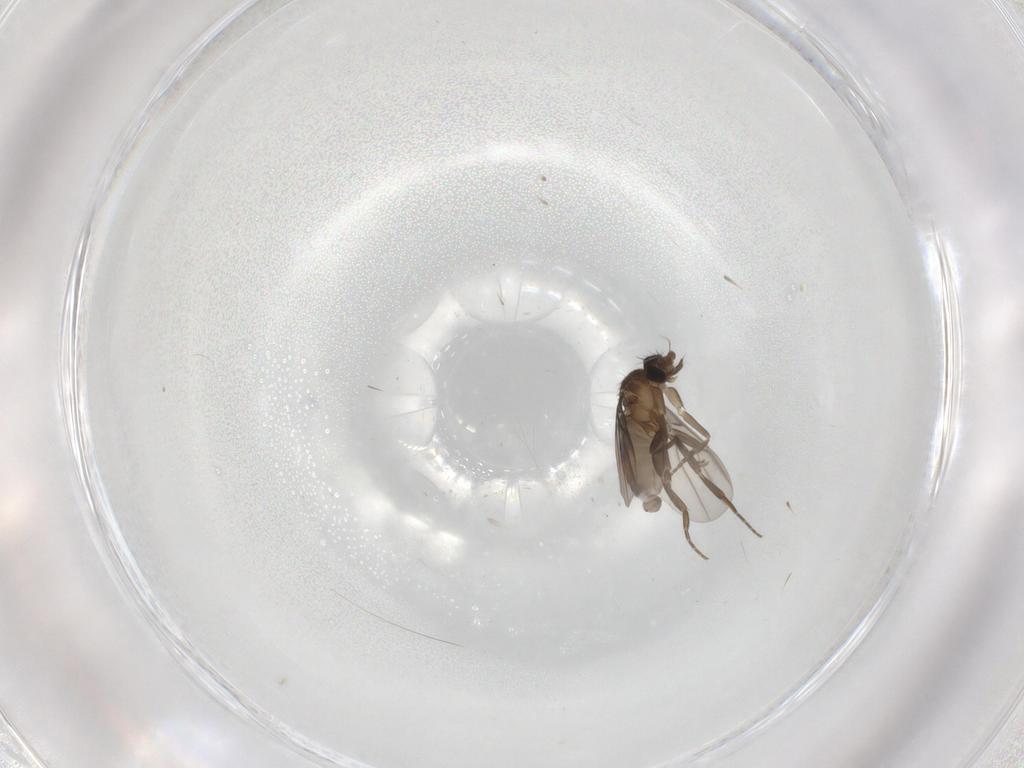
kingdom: Animalia
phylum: Arthropoda
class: Insecta
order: Diptera
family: Phoridae
